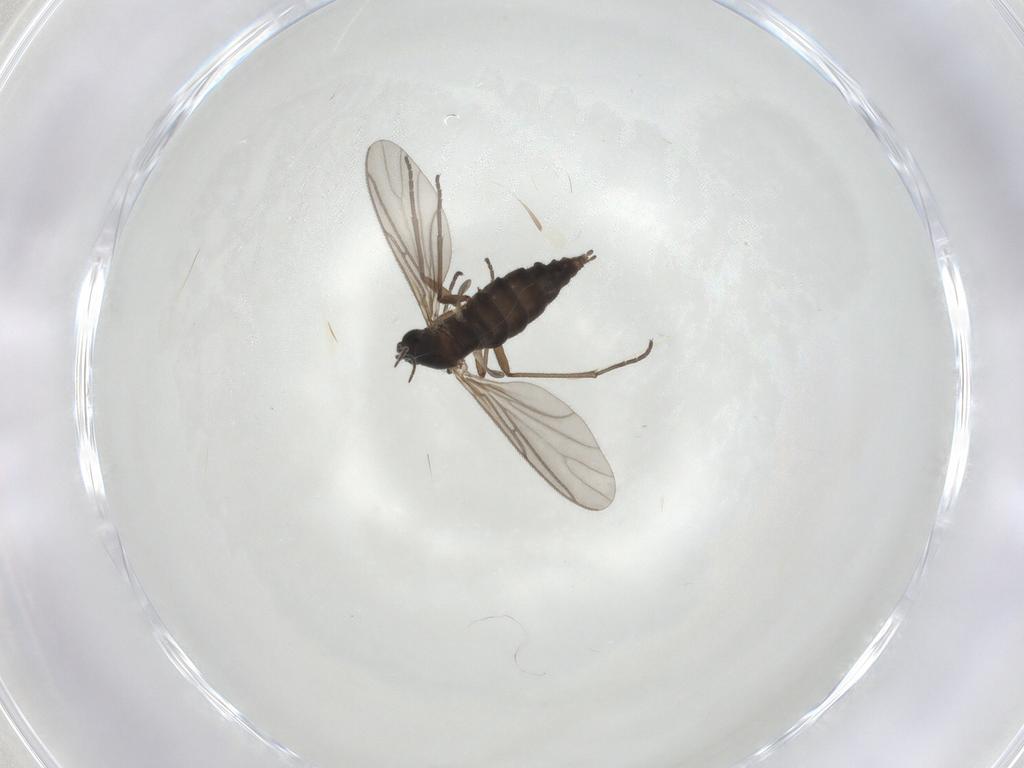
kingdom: Animalia
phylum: Arthropoda
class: Insecta
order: Diptera
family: Sciaridae
